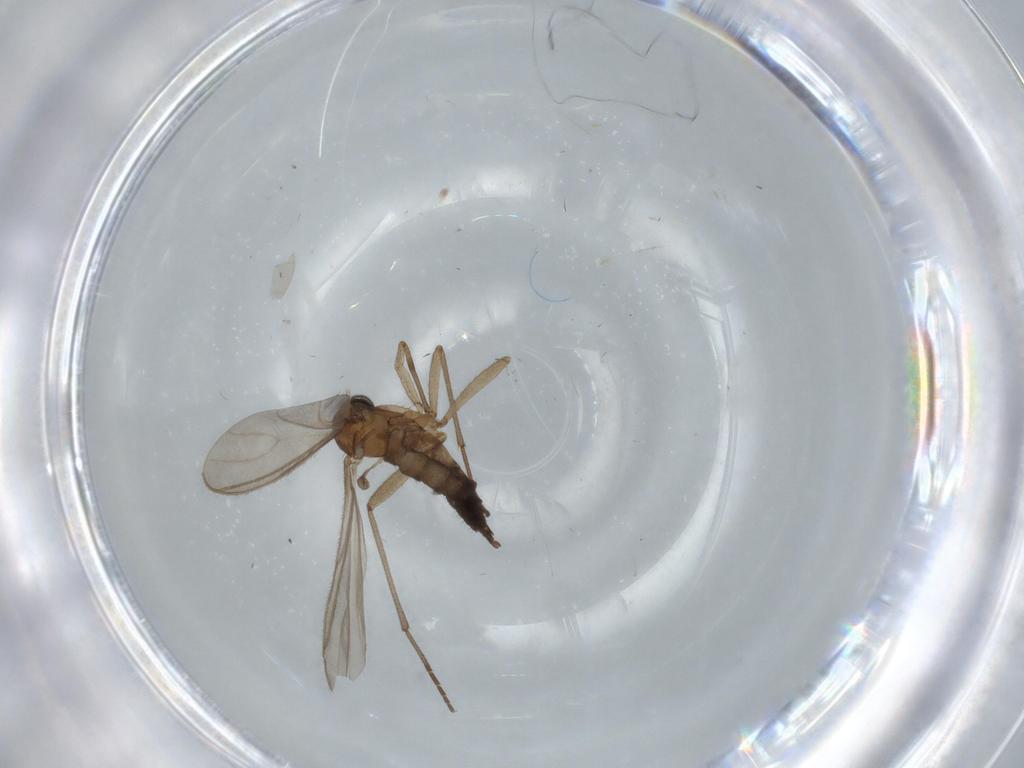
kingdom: Animalia
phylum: Arthropoda
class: Insecta
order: Diptera
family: Sciaridae
